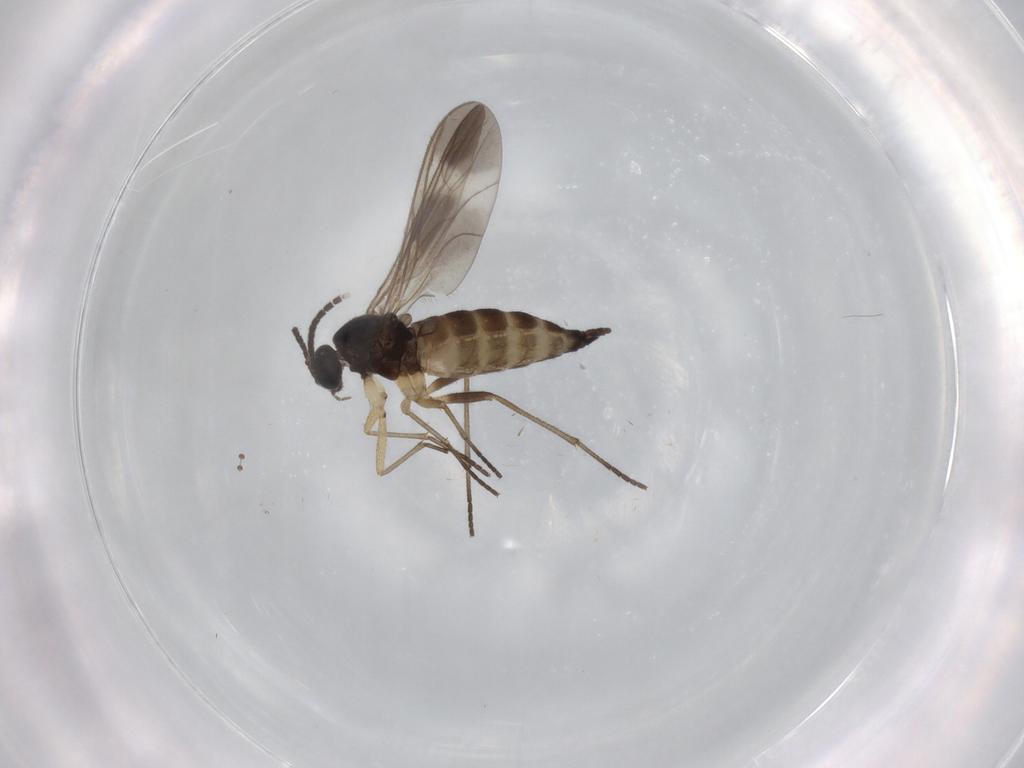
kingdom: Animalia
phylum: Arthropoda
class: Insecta
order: Diptera
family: Sciaridae
